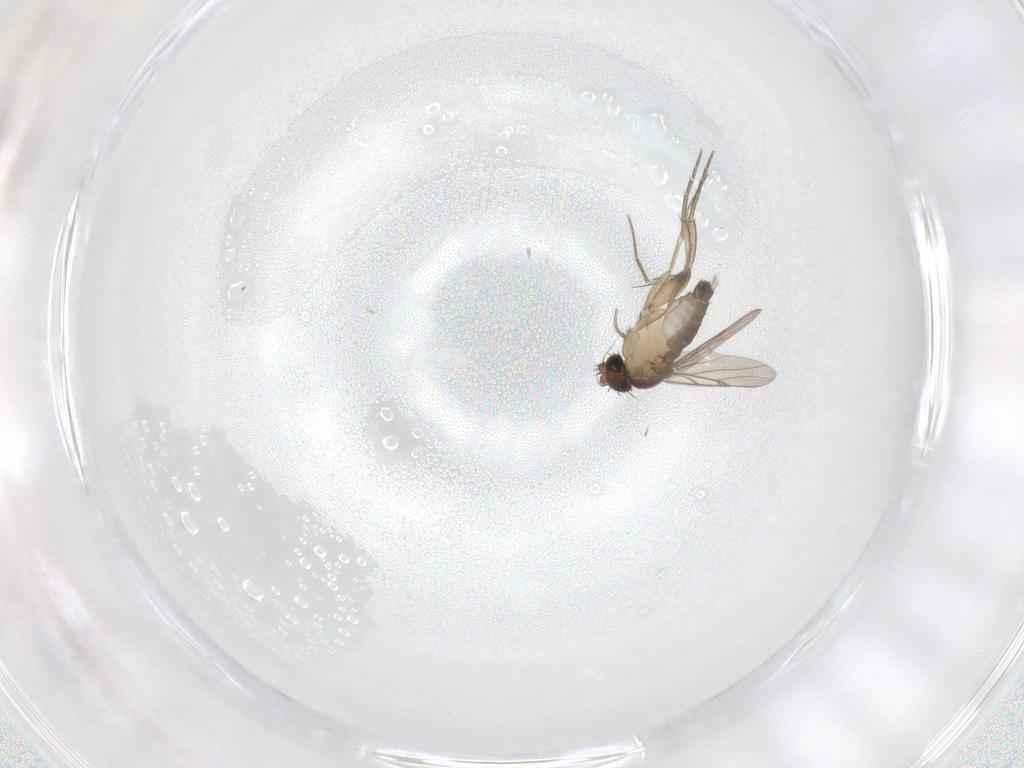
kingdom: Animalia
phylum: Arthropoda
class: Insecta
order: Diptera
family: Phoridae
